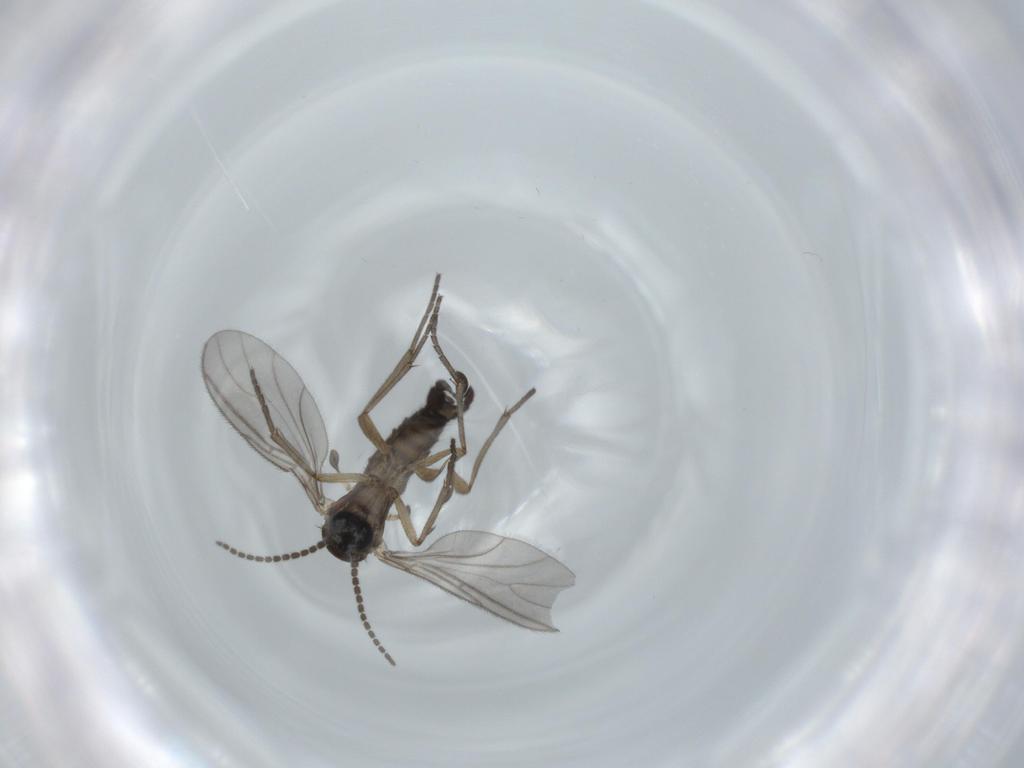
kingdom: Animalia
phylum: Arthropoda
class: Insecta
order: Diptera
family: Sciaridae
